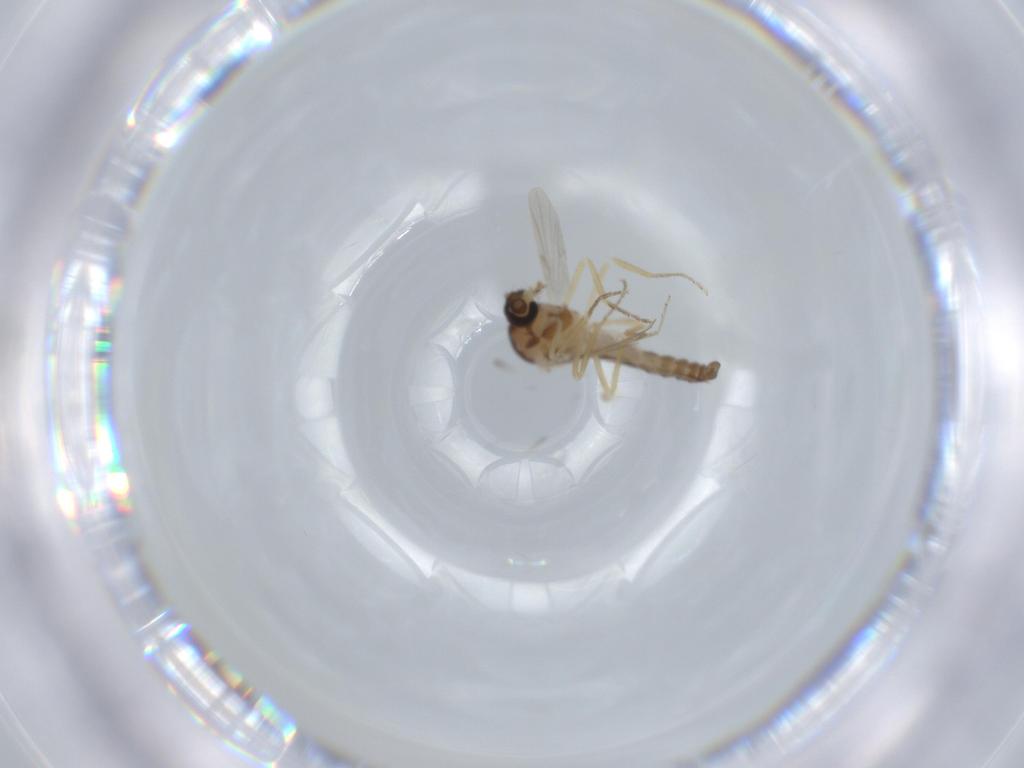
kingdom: Animalia
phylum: Arthropoda
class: Insecta
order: Diptera
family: Ceratopogonidae
